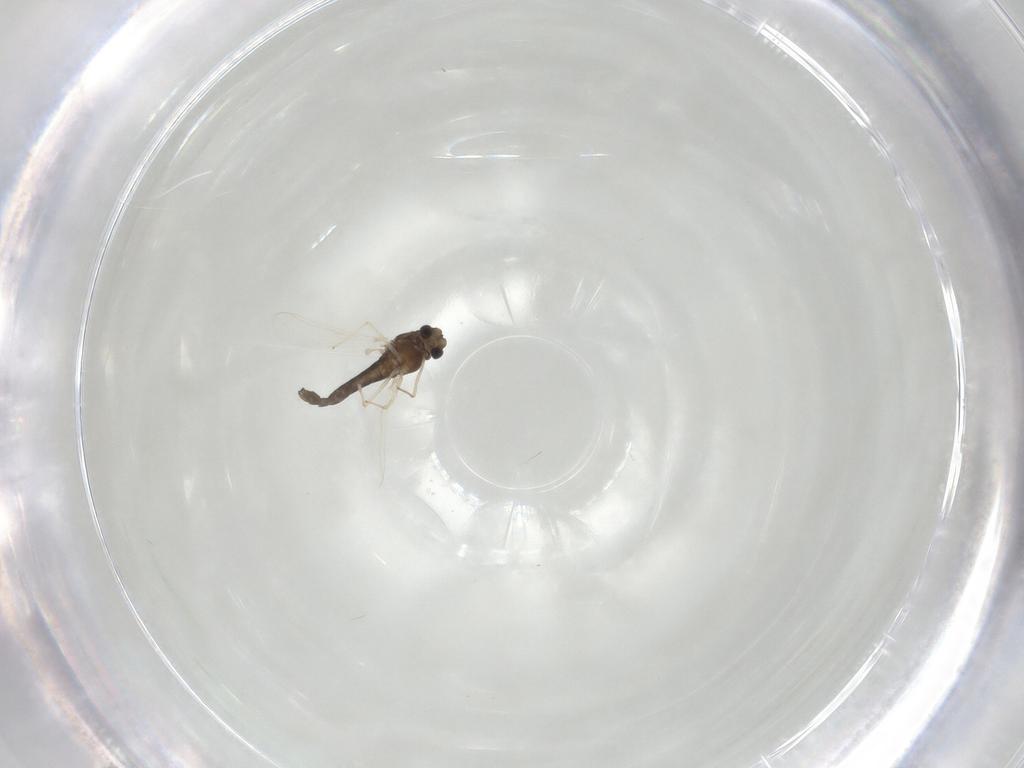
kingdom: Animalia
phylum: Arthropoda
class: Insecta
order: Diptera
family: Chironomidae
